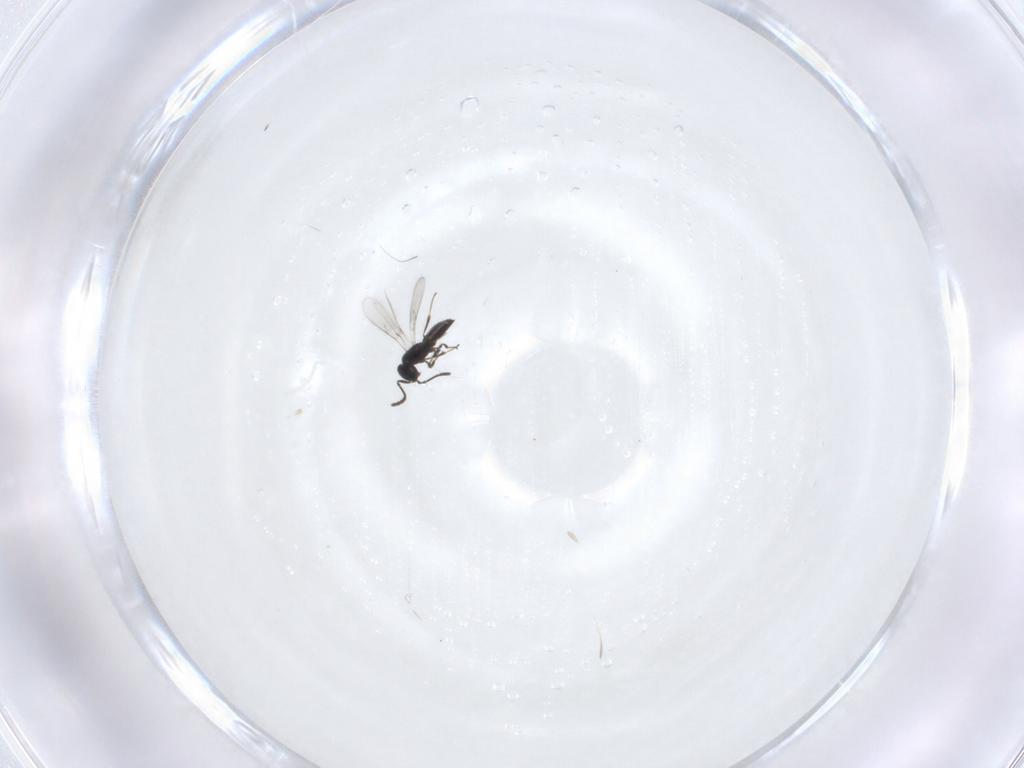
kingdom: Animalia
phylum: Arthropoda
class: Insecta
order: Hymenoptera
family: Scelionidae
